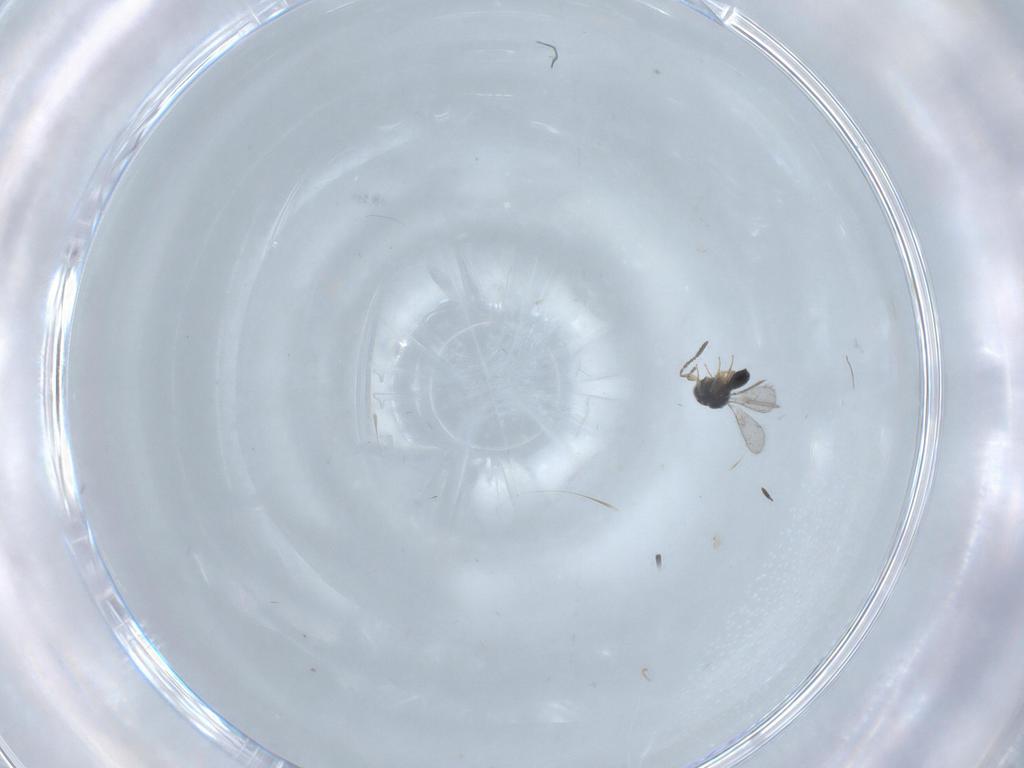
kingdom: Animalia
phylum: Arthropoda
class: Insecta
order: Hymenoptera
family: Scelionidae
